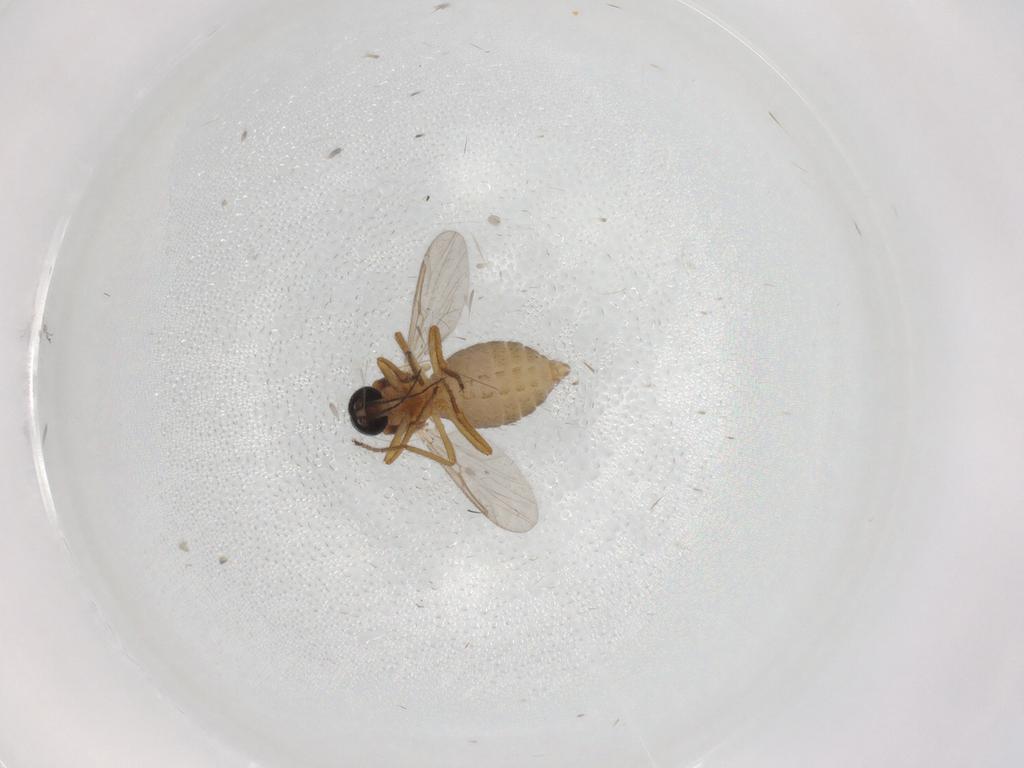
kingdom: Animalia
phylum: Arthropoda
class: Insecta
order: Diptera
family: Ceratopogonidae
